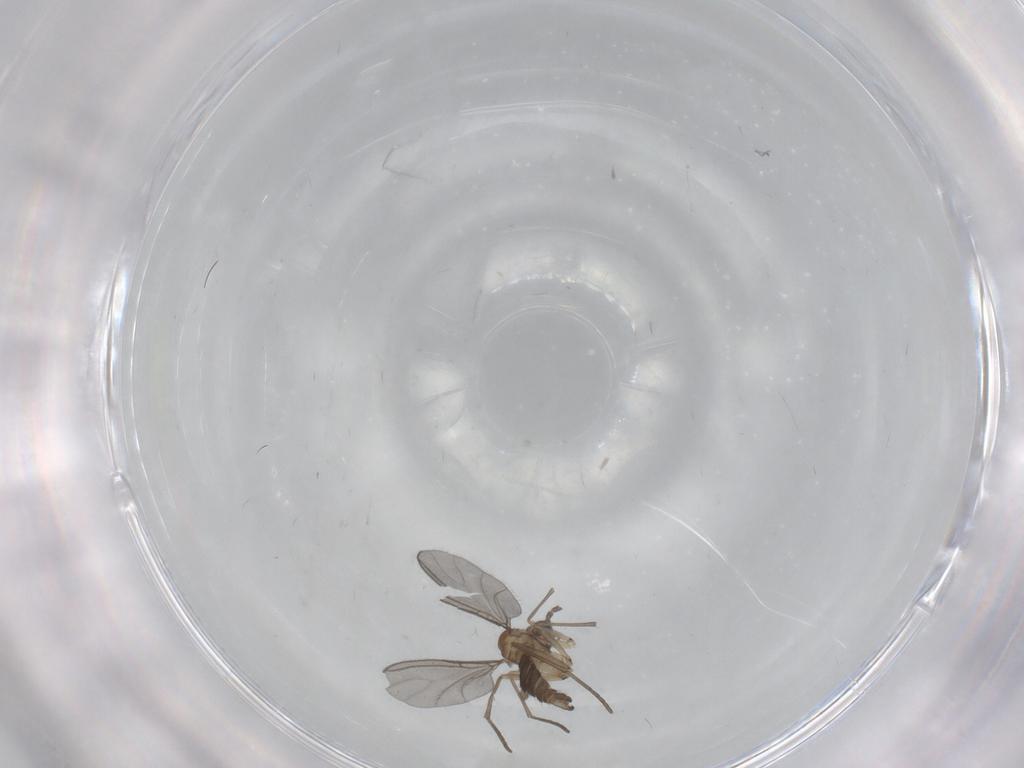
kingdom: Animalia
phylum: Arthropoda
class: Insecta
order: Diptera
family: Sciaridae
